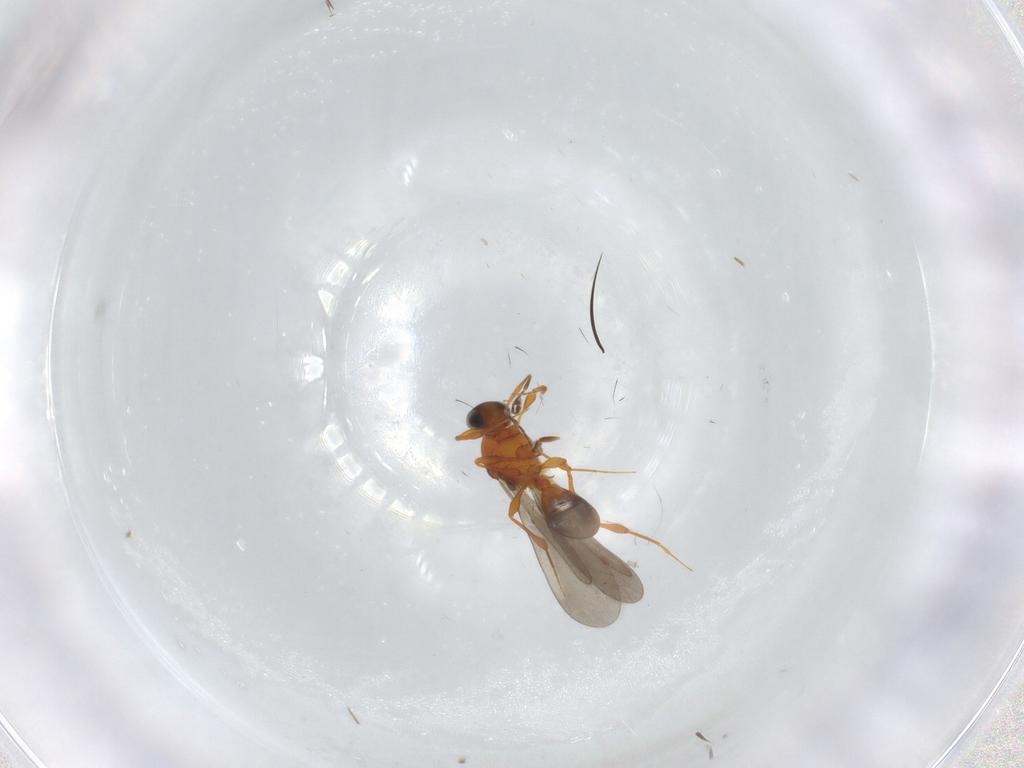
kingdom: Animalia
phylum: Arthropoda
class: Insecta
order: Hymenoptera
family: Platygastridae
